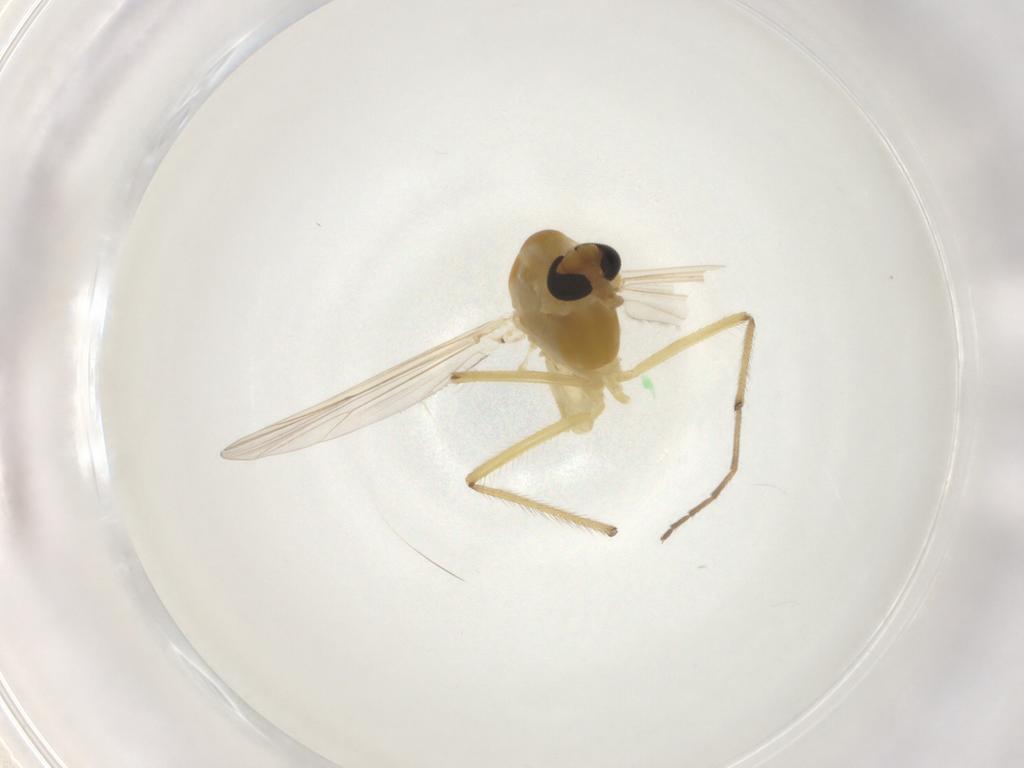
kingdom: Animalia
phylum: Arthropoda
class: Insecta
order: Diptera
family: Chironomidae
